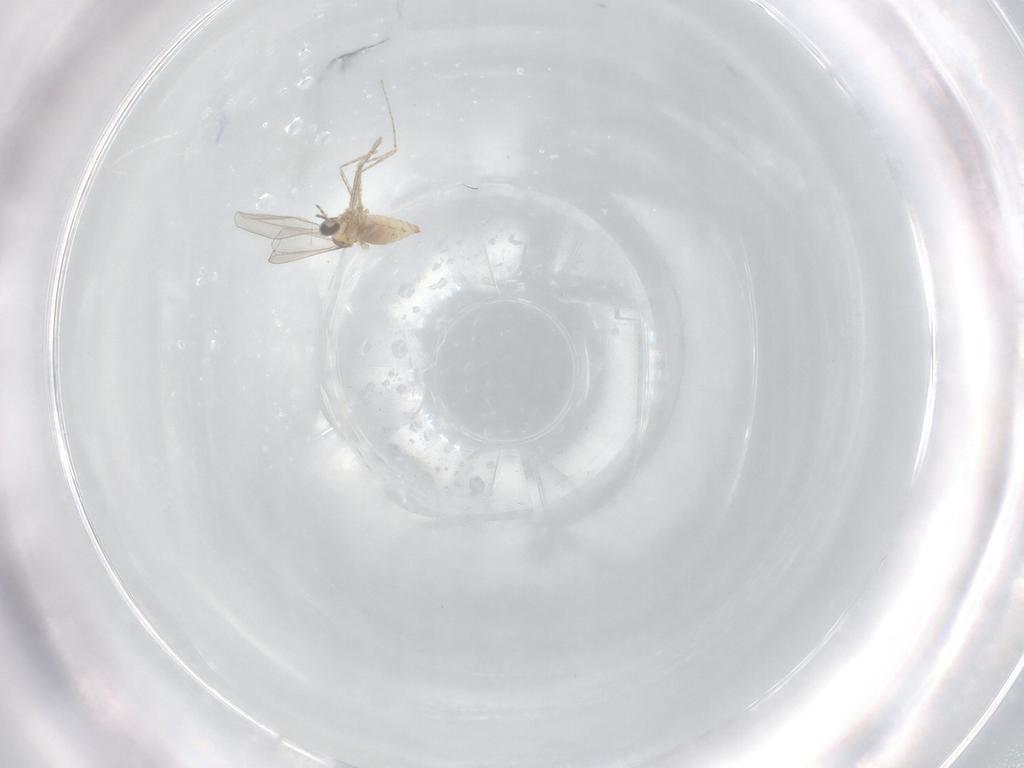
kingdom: Animalia
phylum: Arthropoda
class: Insecta
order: Diptera
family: Cecidomyiidae
